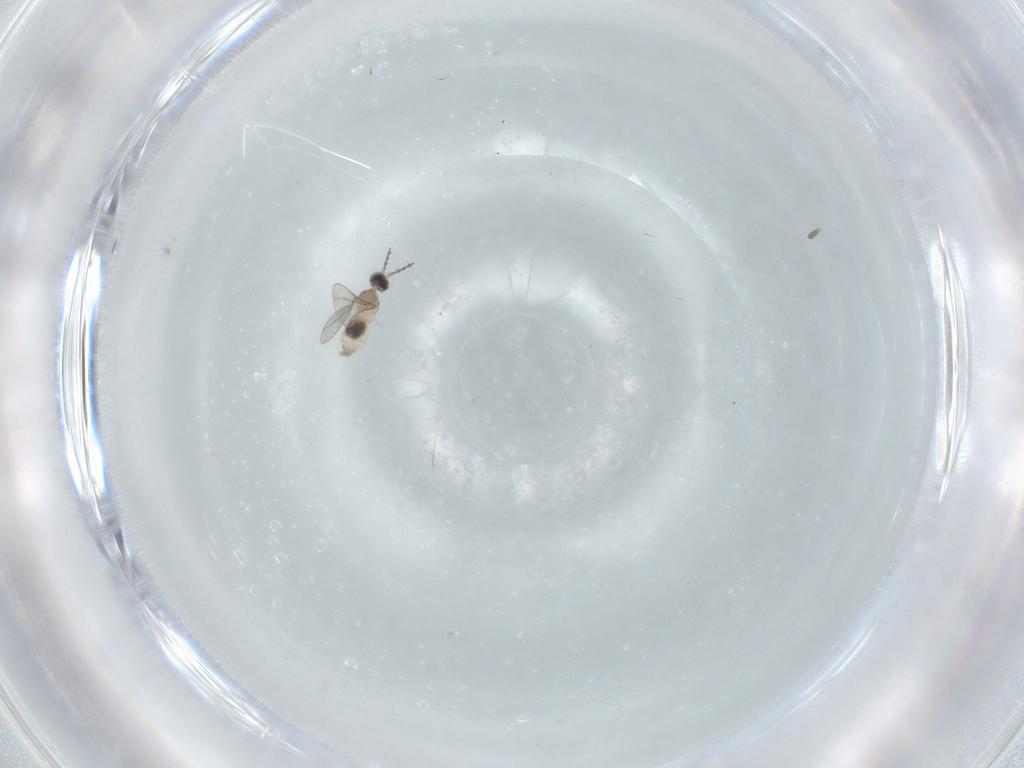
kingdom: Animalia
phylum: Arthropoda
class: Insecta
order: Diptera
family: Cecidomyiidae
